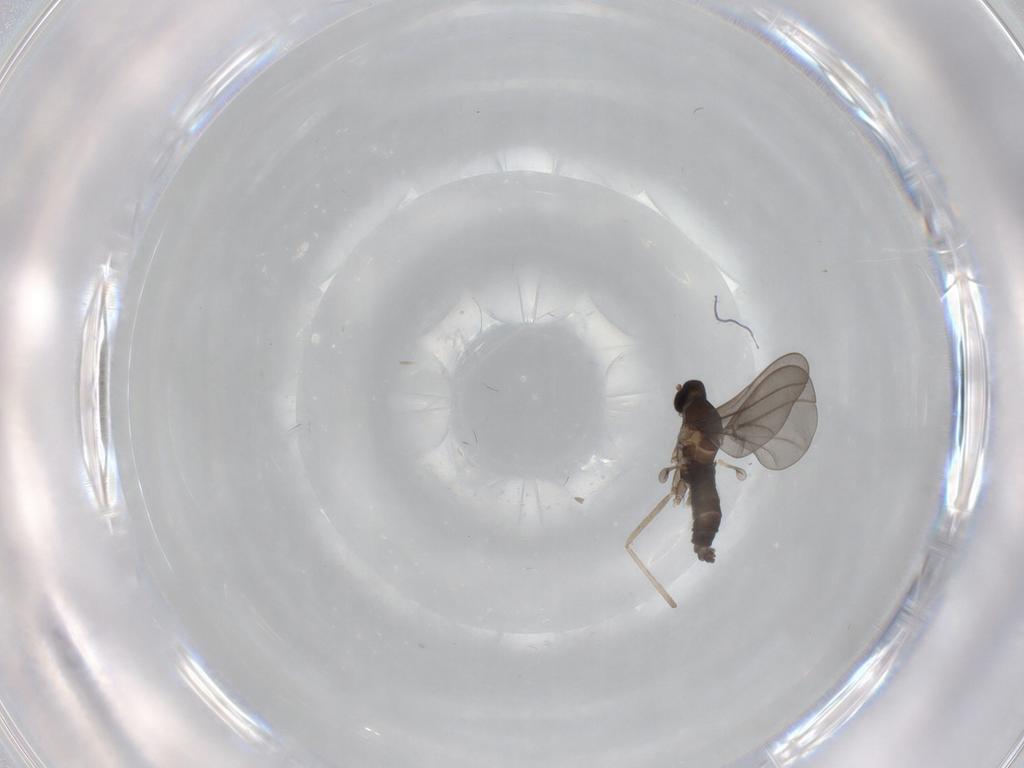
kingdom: Animalia
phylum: Arthropoda
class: Insecta
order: Diptera
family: Cecidomyiidae
